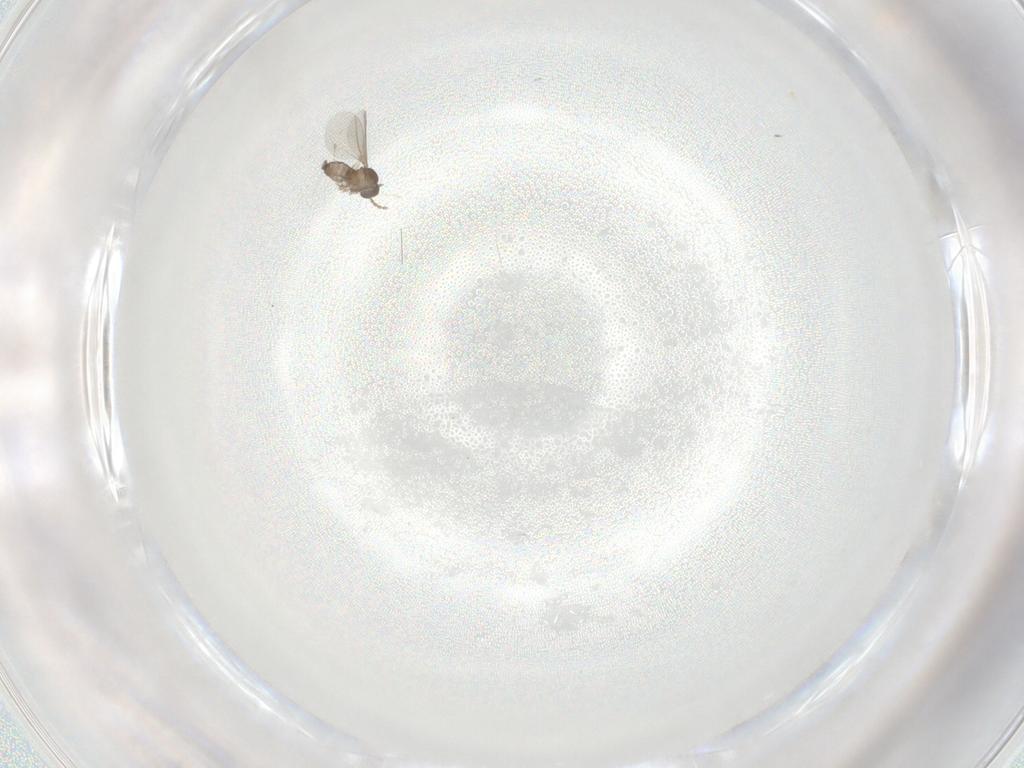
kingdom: Animalia
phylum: Arthropoda
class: Insecta
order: Diptera
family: Cecidomyiidae
